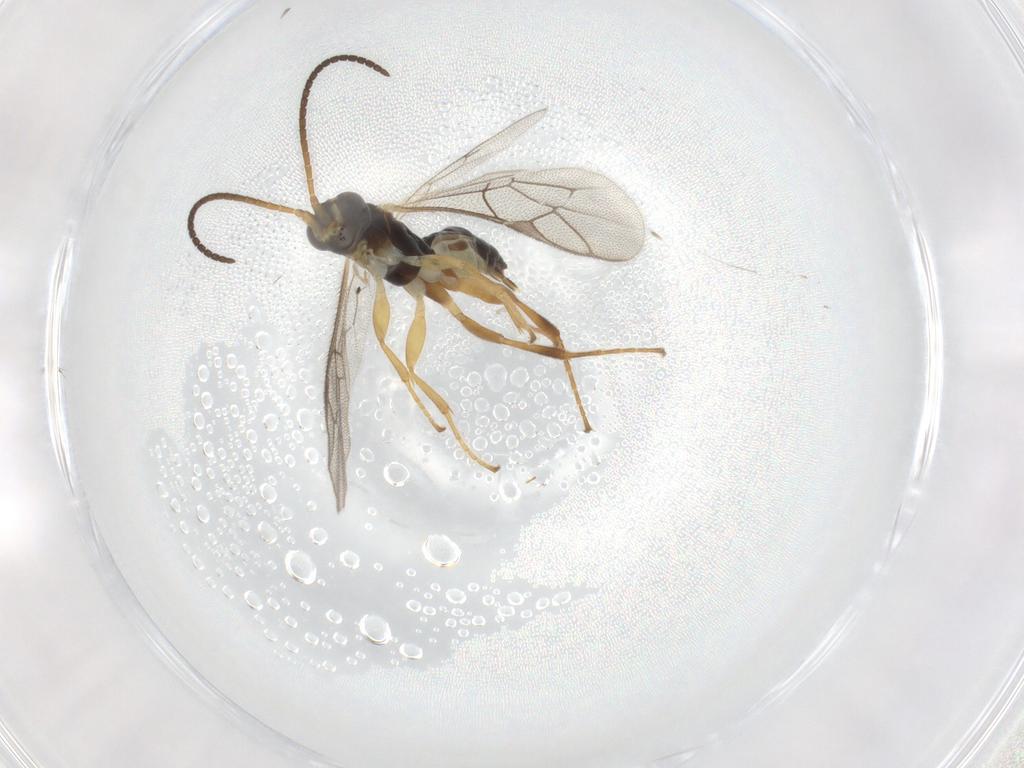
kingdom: Animalia
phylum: Arthropoda
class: Insecta
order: Hymenoptera
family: Ichneumonidae
